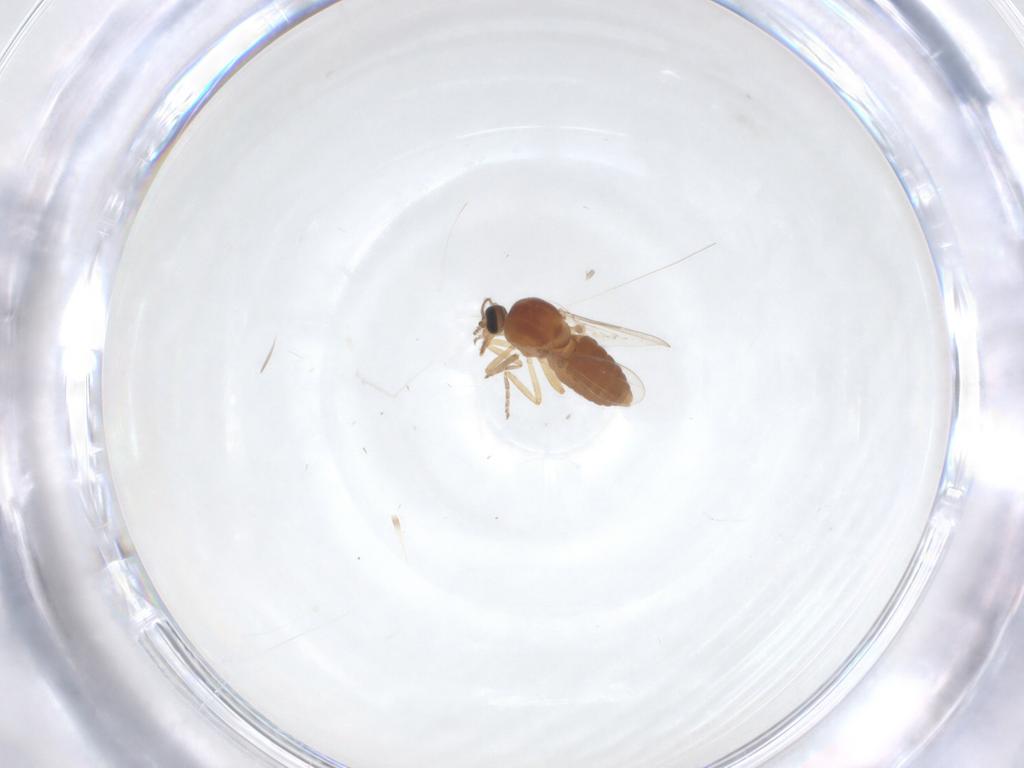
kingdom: Animalia
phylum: Arthropoda
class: Insecta
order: Diptera
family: Ceratopogonidae
